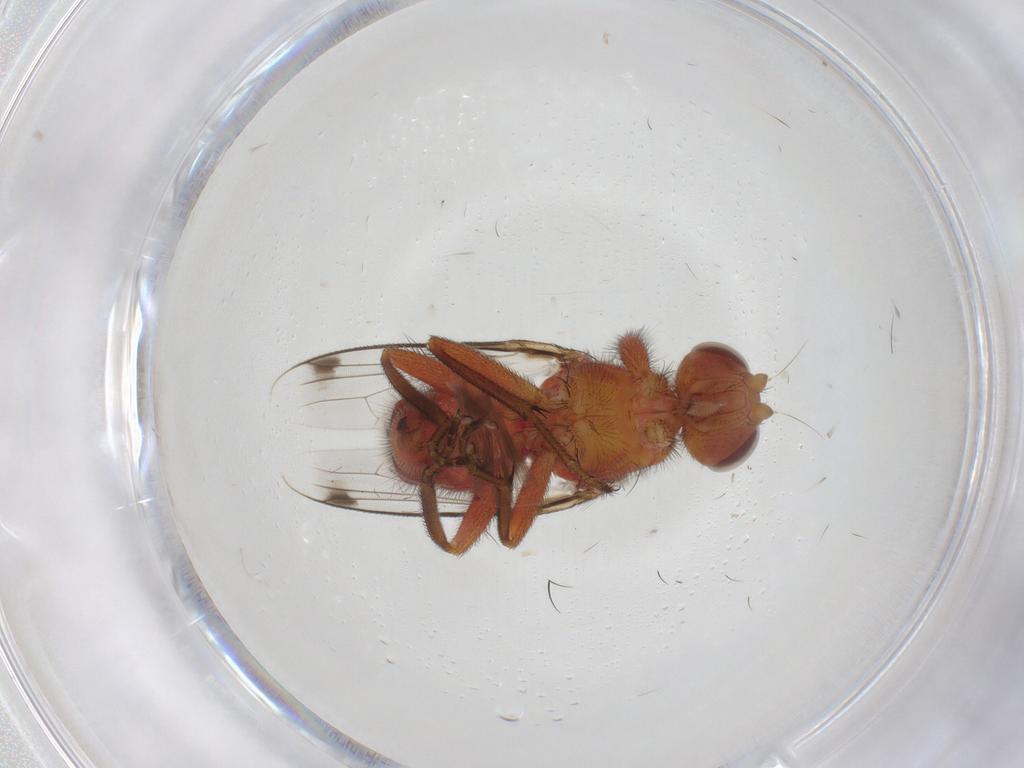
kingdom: Animalia
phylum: Arthropoda
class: Insecta
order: Diptera
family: Richardiidae
